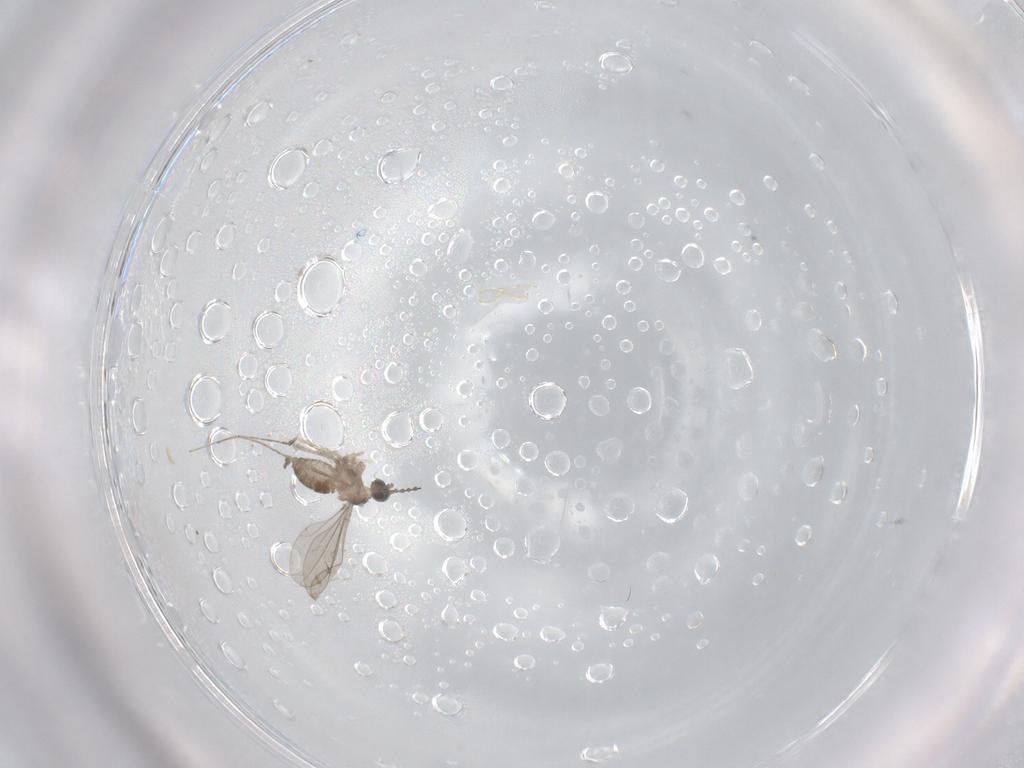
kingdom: Animalia
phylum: Arthropoda
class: Insecta
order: Diptera
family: Cecidomyiidae
